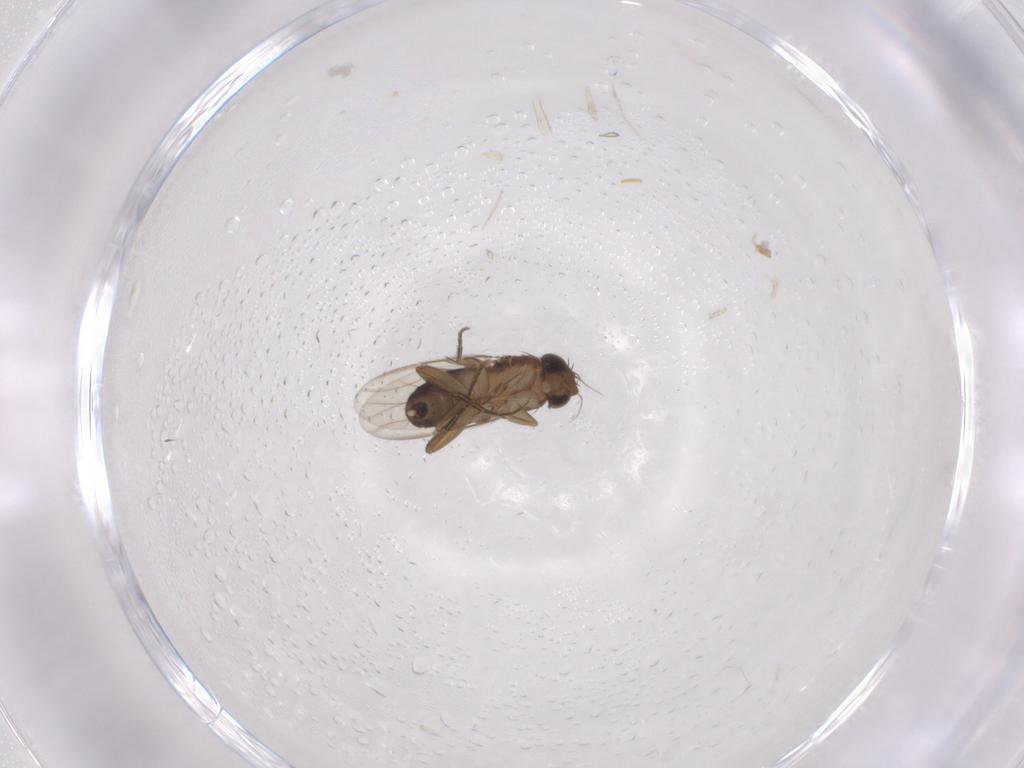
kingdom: Animalia
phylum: Arthropoda
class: Insecta
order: Diptera
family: Phoridae
